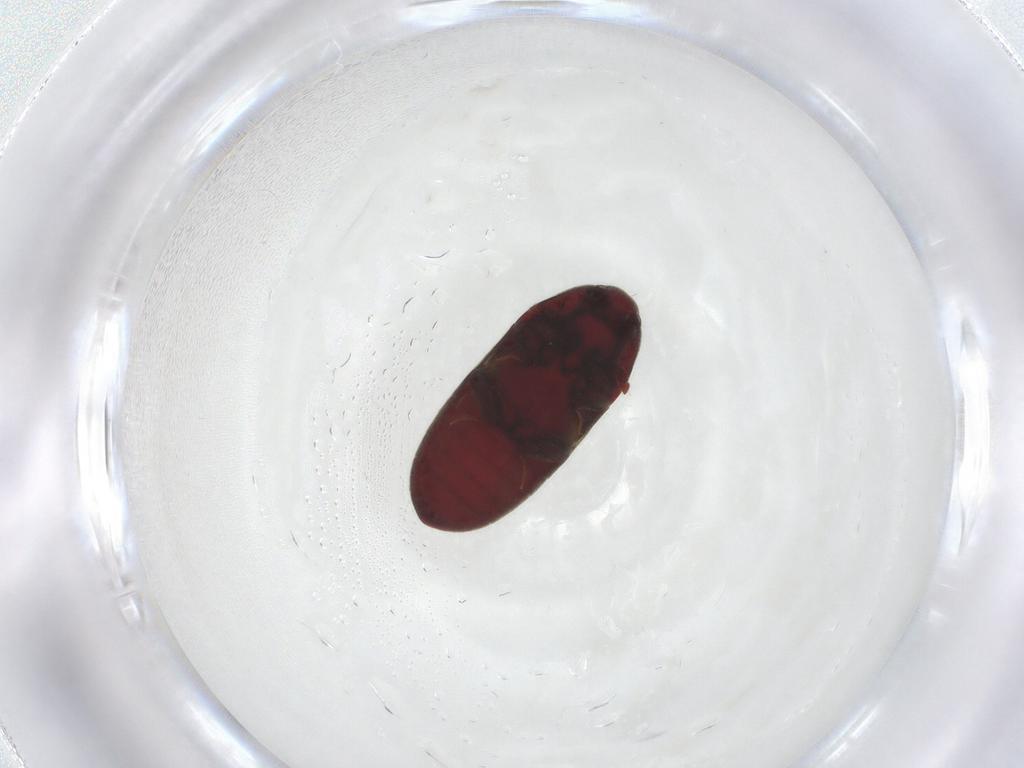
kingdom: Animalia
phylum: Arthropoda
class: Insecta
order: Coleoptera
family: Throscidae
